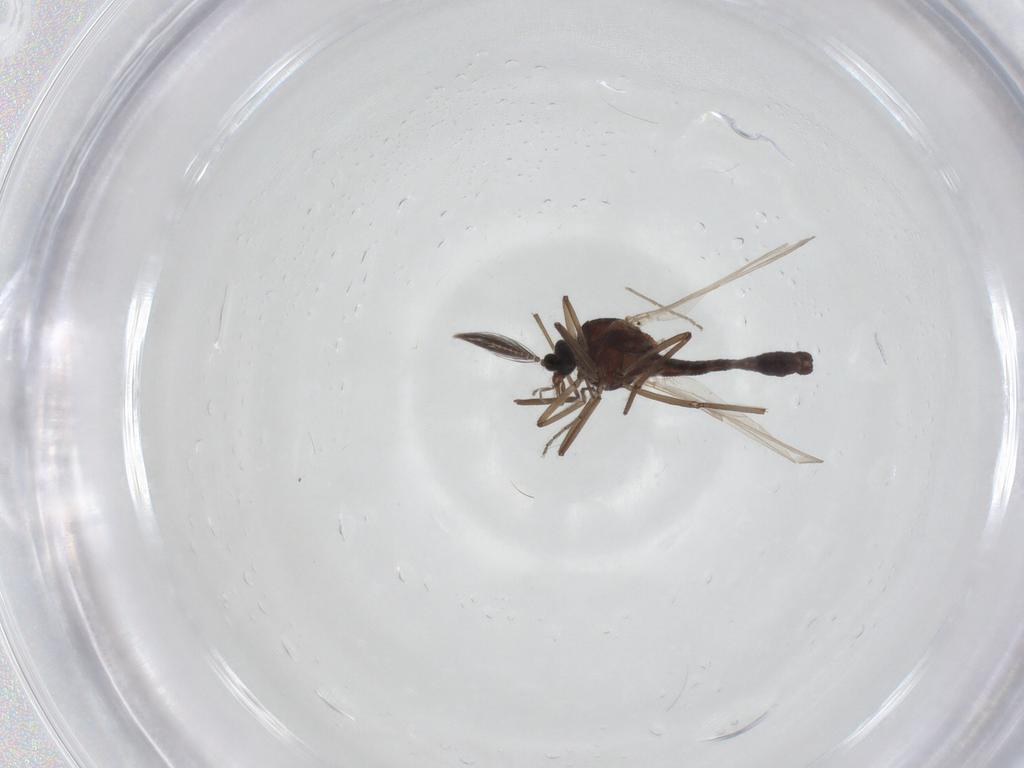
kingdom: Animalia
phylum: Arthropoda
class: Insecta
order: Diptera
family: Ceratopogonidae
